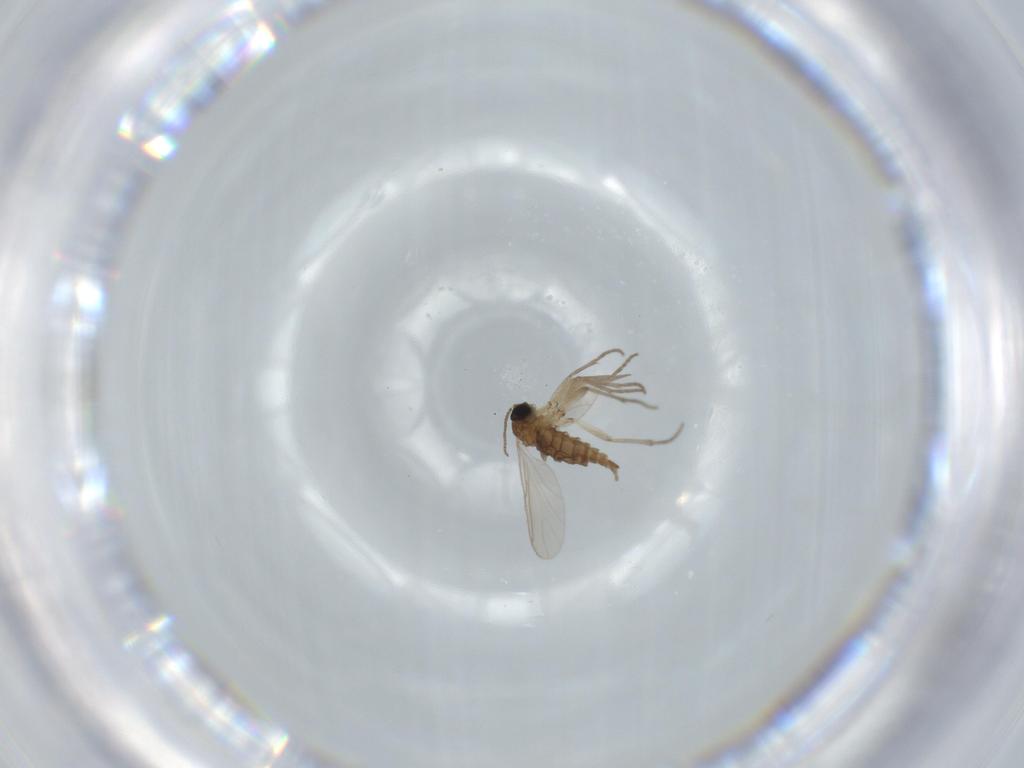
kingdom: Animalia
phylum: Arthropoda
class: Insecta
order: Diptera
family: Sciaridae
